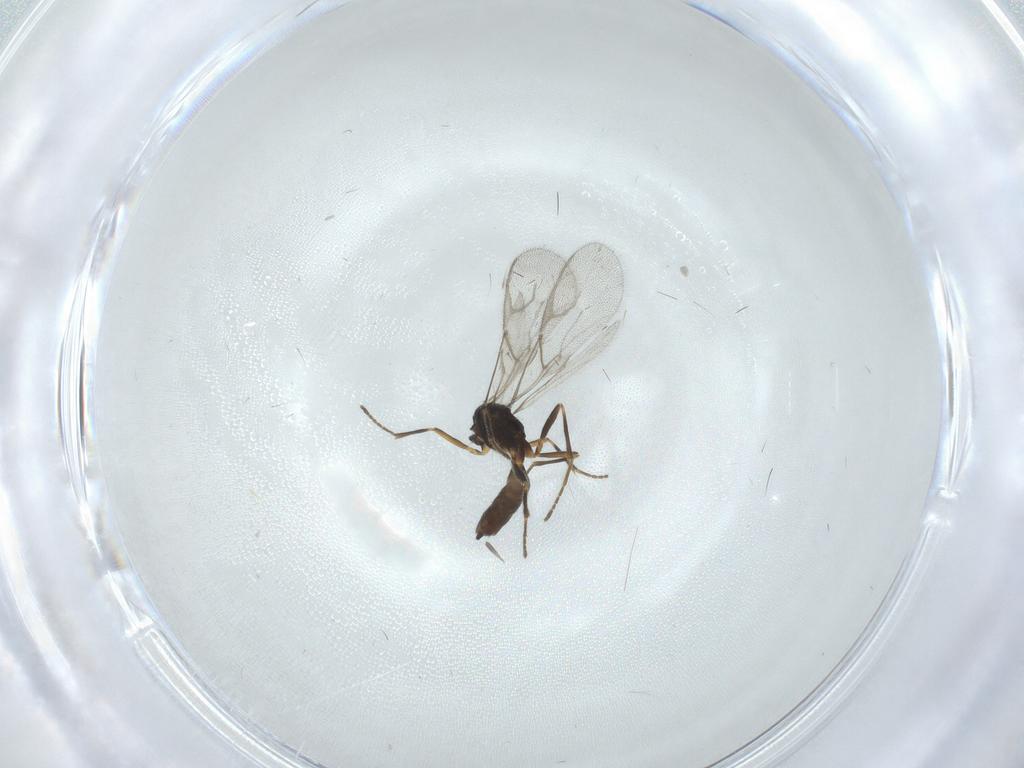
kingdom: Animalia
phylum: Arthropoda
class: Insecta
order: Hymenoptera
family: Braconidae
